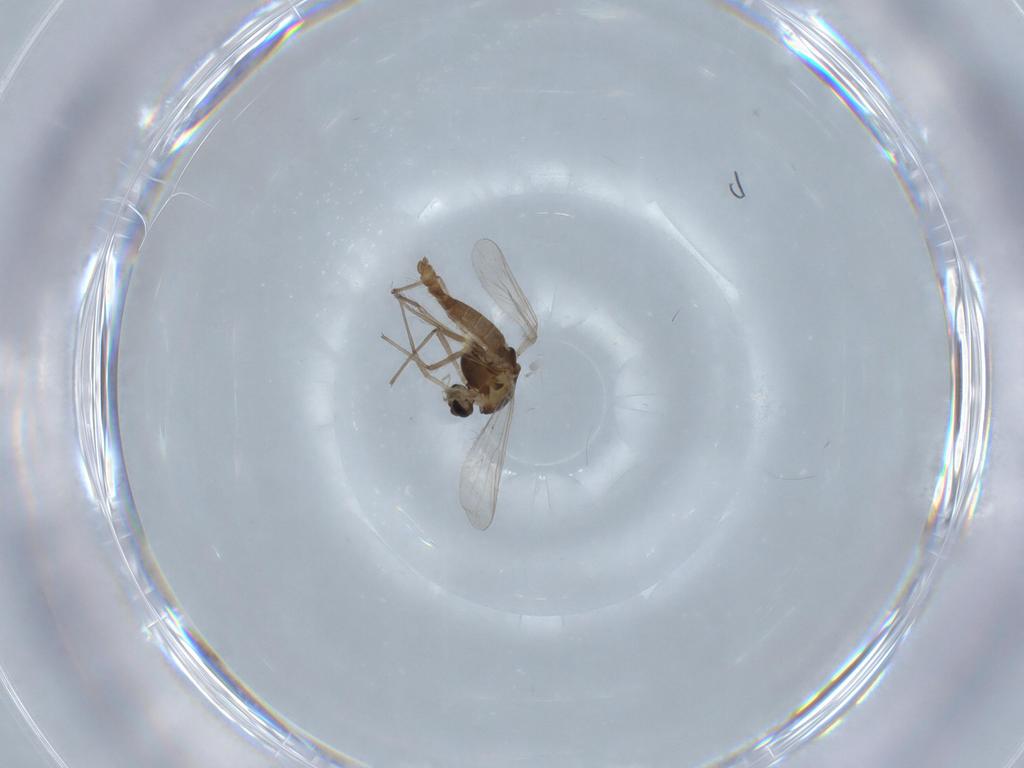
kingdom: Animalia
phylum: Arthropoda
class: Insecta
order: Diptera
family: Chironomidae
